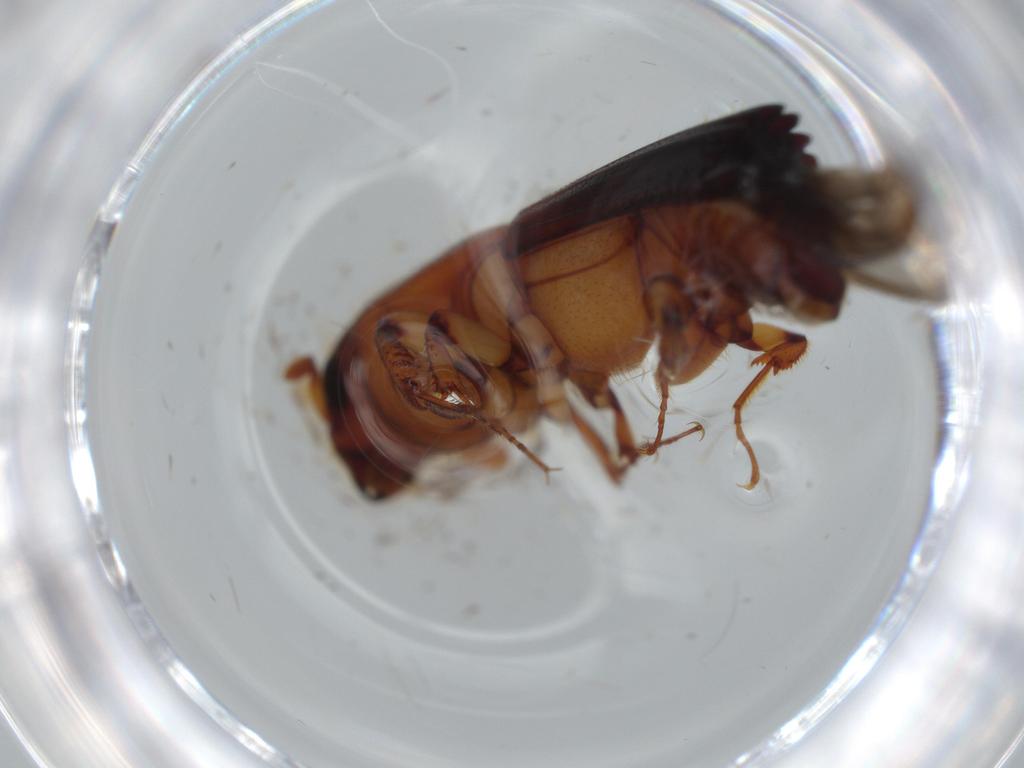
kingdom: Animalia
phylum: Arthropoda
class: Insecta
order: Coleoptera
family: Curculionidae
